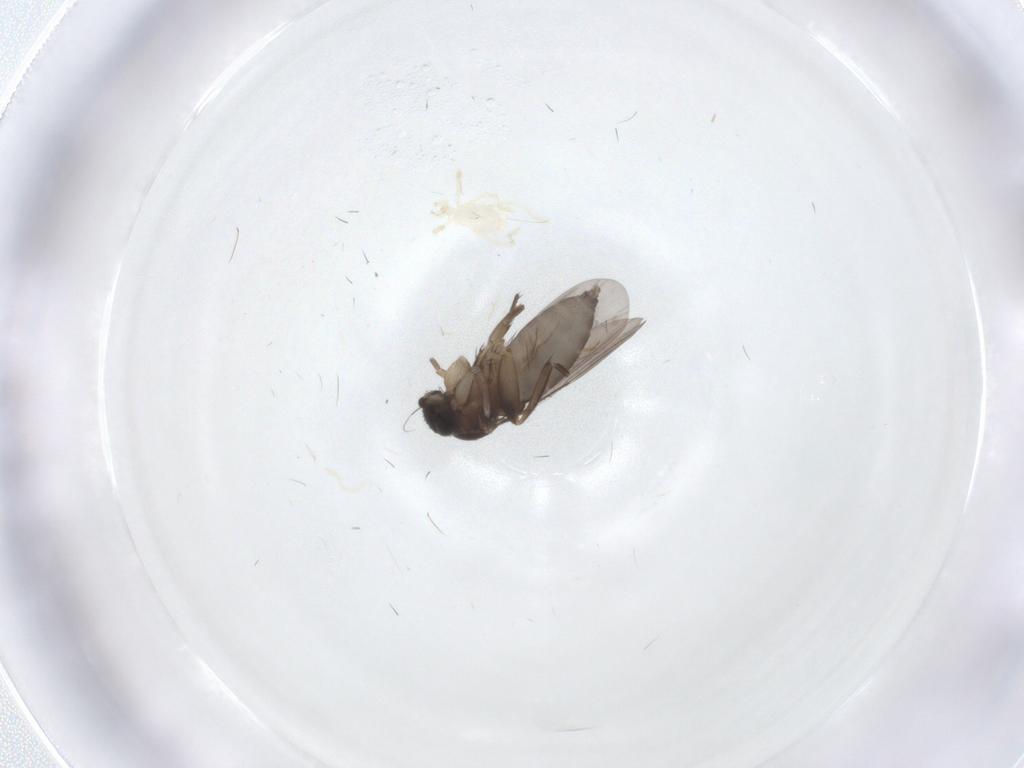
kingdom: Animalia
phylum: Arthropoda
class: Insecta
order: Diptera
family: Phoridae
